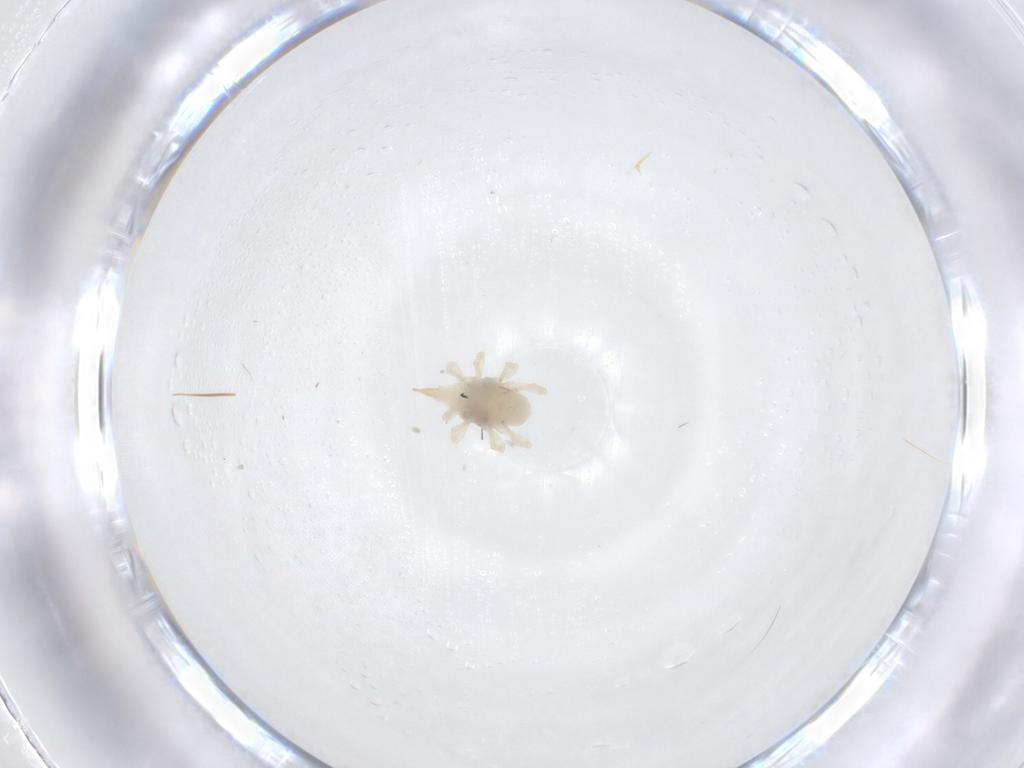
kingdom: Animalia
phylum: Arthropoda
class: Arachnida
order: Trombidiformes
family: Bdellidae
